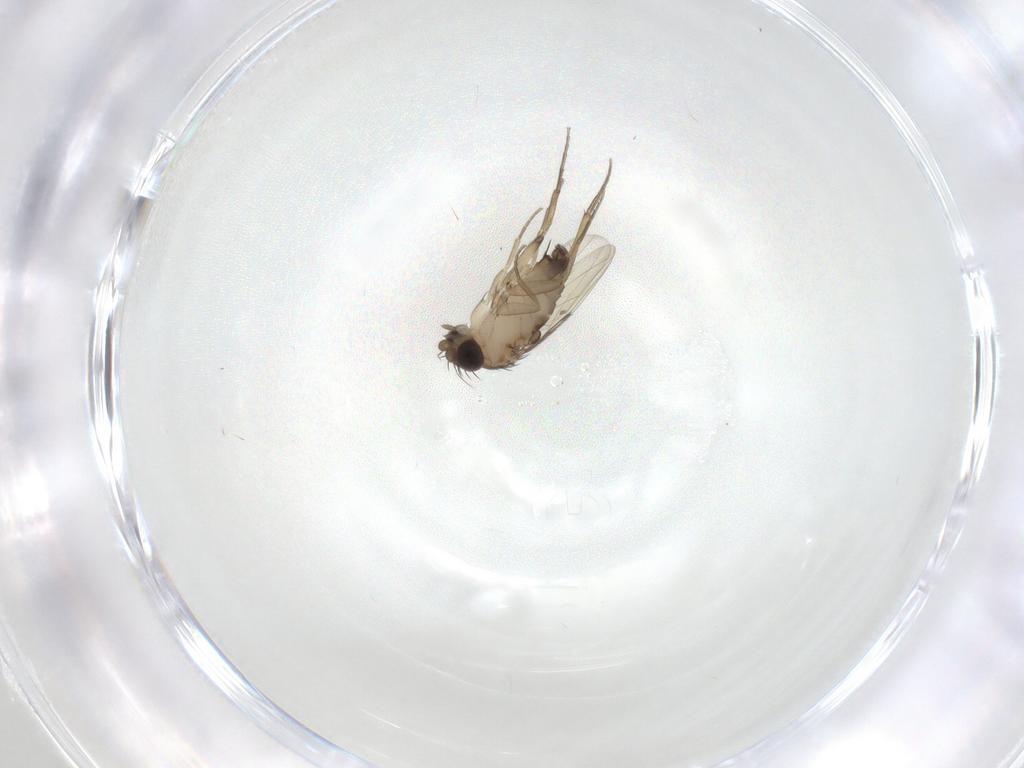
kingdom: Animalia
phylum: Arthropoda
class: Insecta
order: Diptera
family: Phoridae
